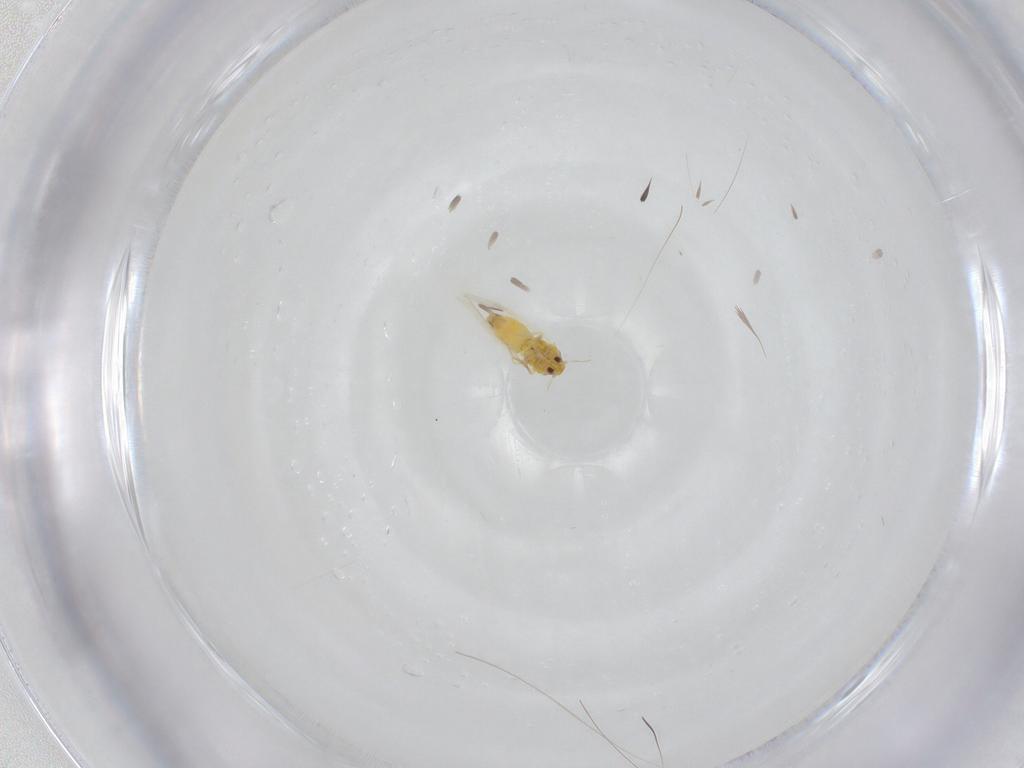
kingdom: Animalia
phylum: Arthropoda
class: Insecta
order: Hemiptera
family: Aleyrodidae
